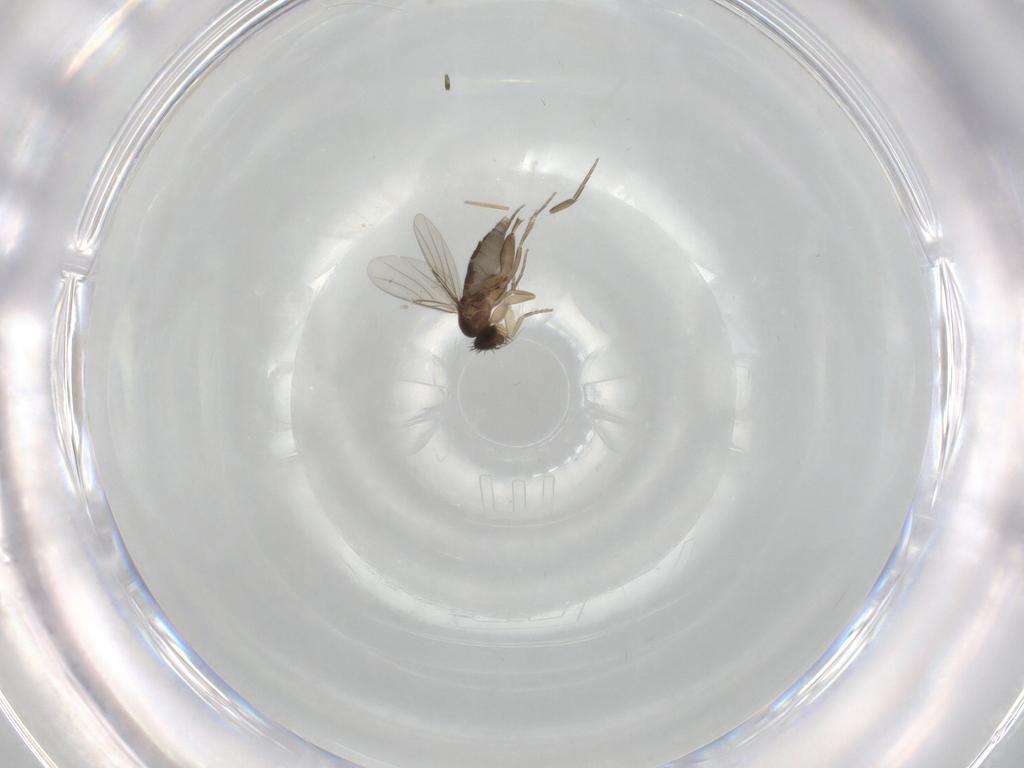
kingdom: Animalia
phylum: Arthropoda
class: Insecta
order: Diptera
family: Phoridae
